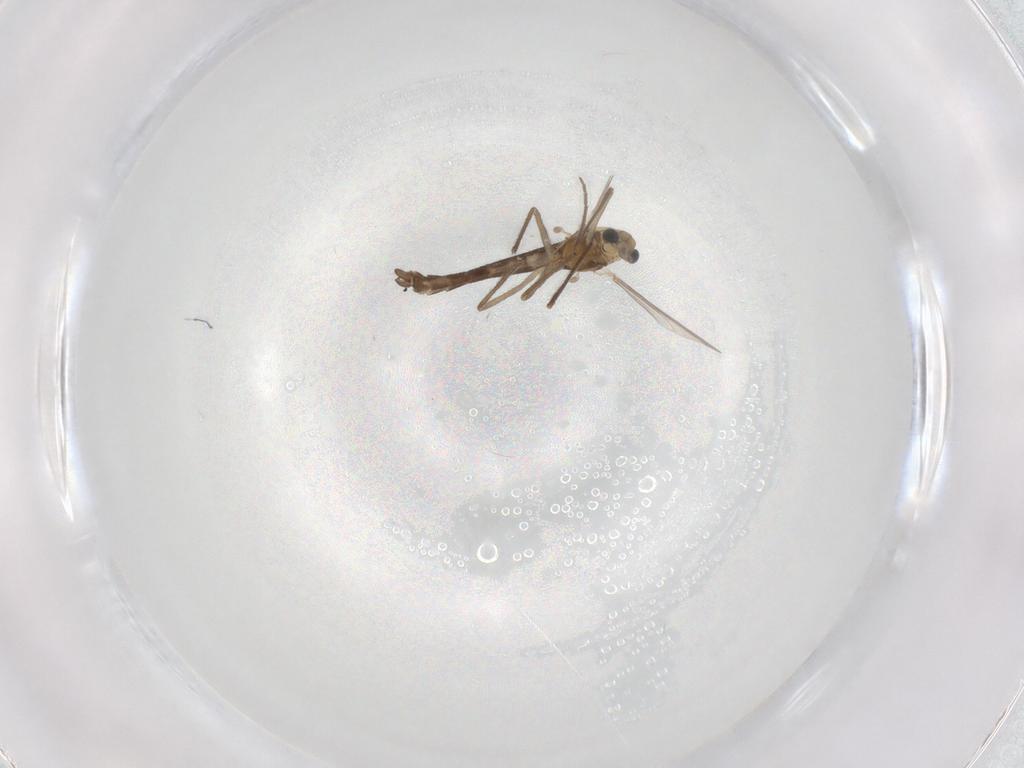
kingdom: Animalia
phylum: Arthropoda
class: Insecta
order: Diptera
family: Chironomidae
